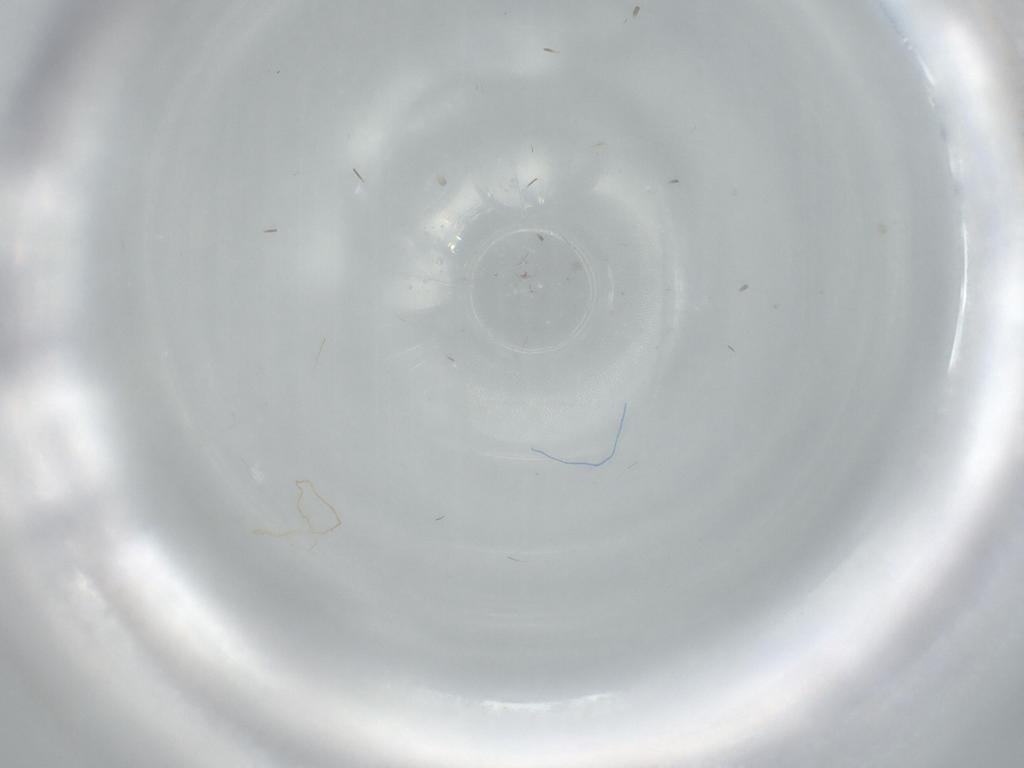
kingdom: Animalia
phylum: Arthropoda
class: Insecta
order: Hymenoptera
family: Platygastridae
